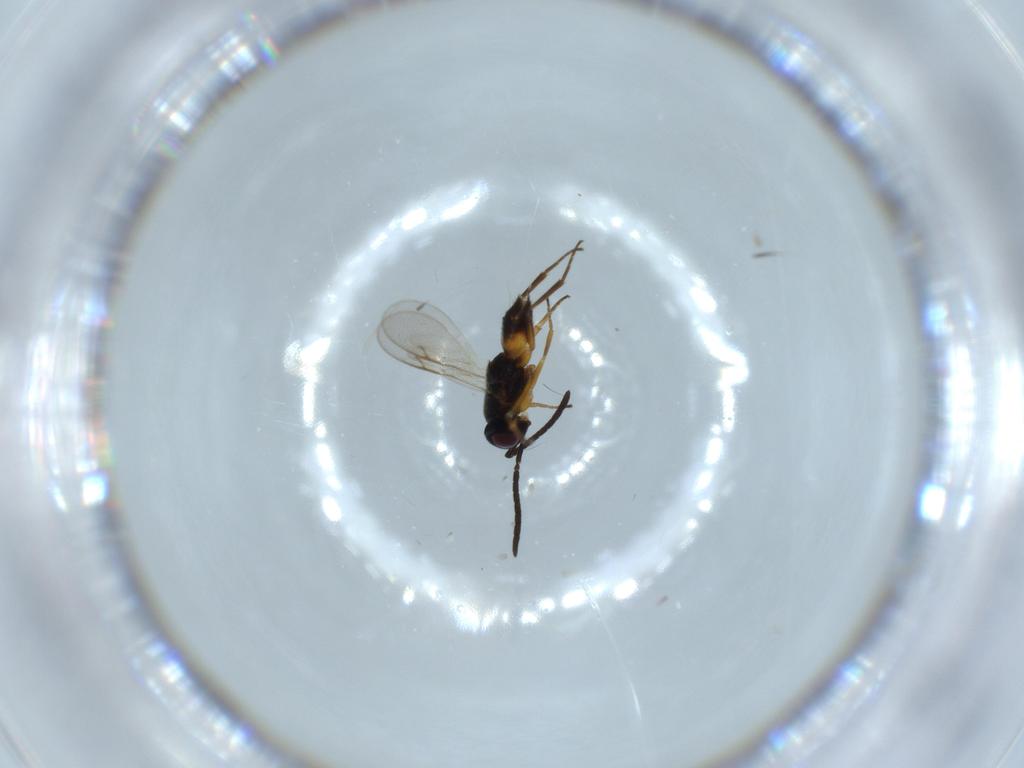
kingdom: Animalia
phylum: Arthropoda
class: Insecta
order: Hymenoptera
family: Encyrtidae
